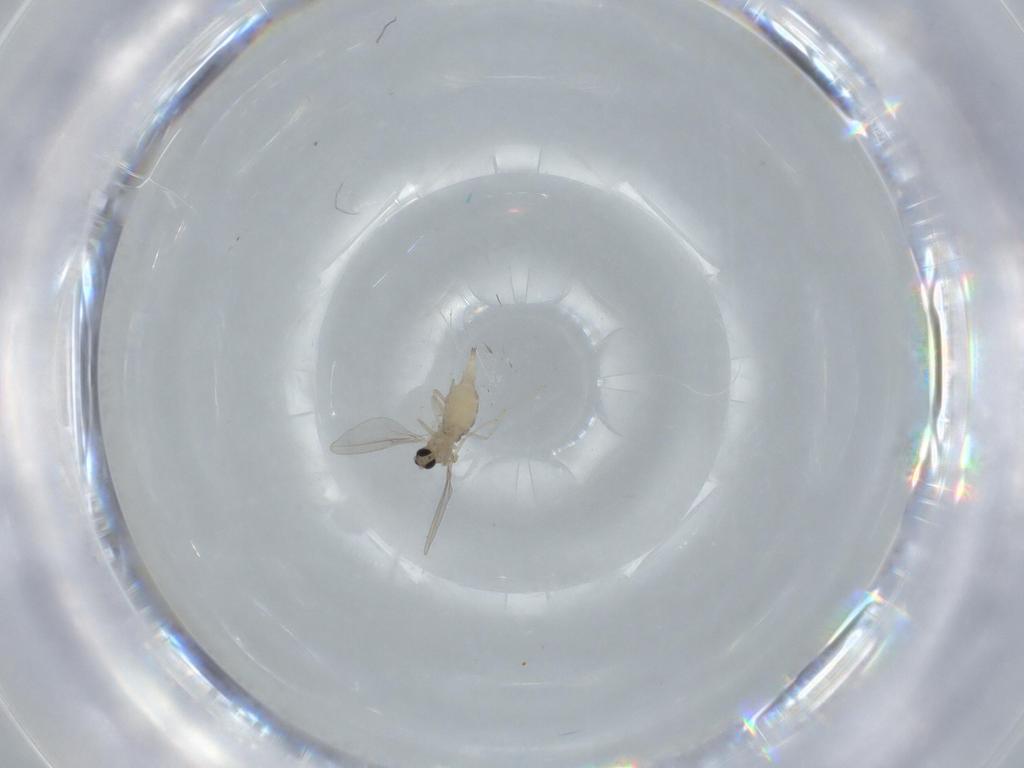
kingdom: Animalia
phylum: Arthropoda
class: Insecta
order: Diptera
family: Cecidomyiidae
